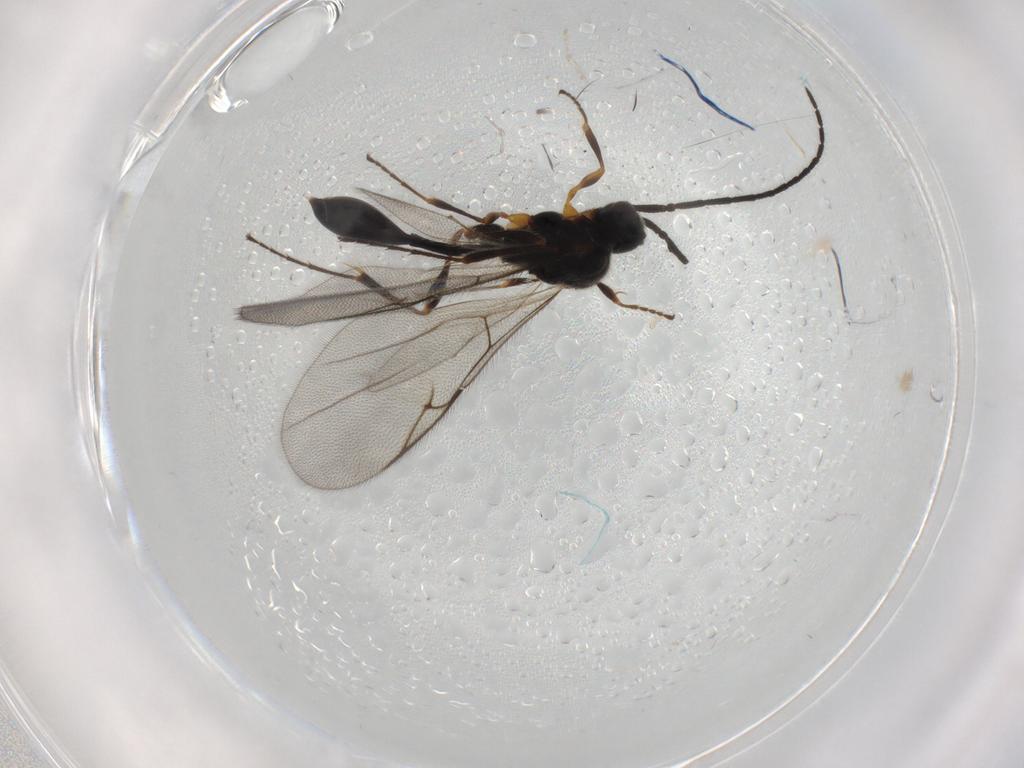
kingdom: Animalia
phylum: Arthropoda
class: Insecta
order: Hymenoptera
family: Diapriidae
